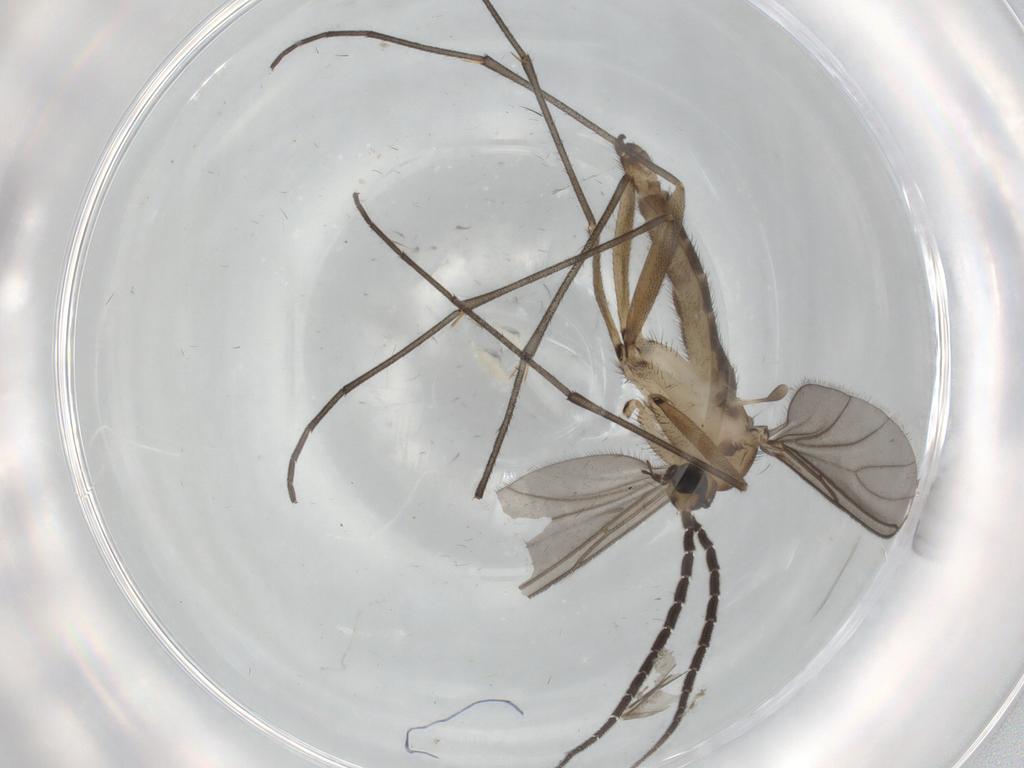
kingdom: Animalia
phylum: Arthropoda
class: Insecta
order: Diptera
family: Sciaridae
